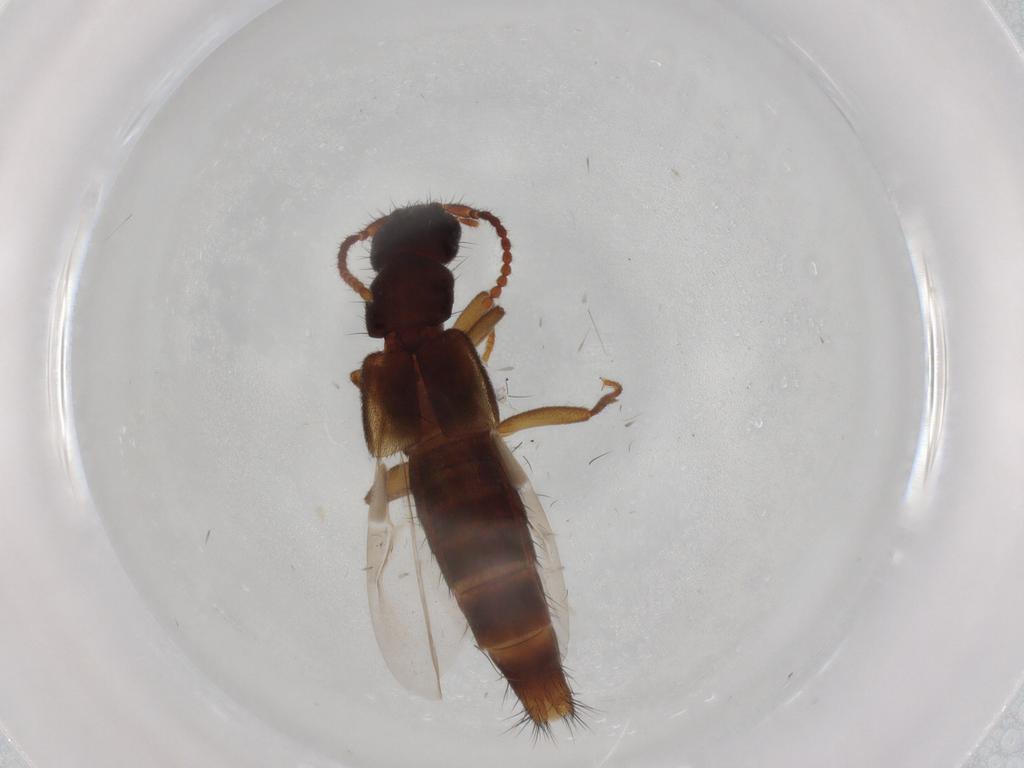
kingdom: Animalia
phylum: Arthropoda
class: Insecta
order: Coleoptera
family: Staphylinidae
